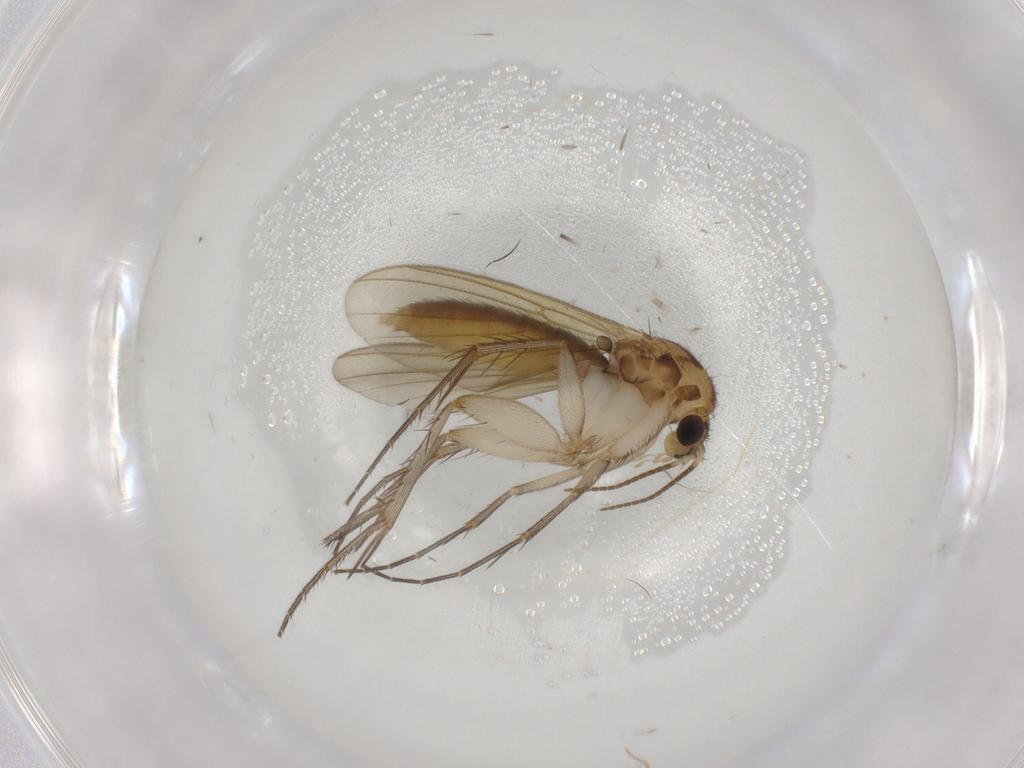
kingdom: Animalia
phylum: Arthropoda
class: Insecta
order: Diptera
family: Mycetophilidae
